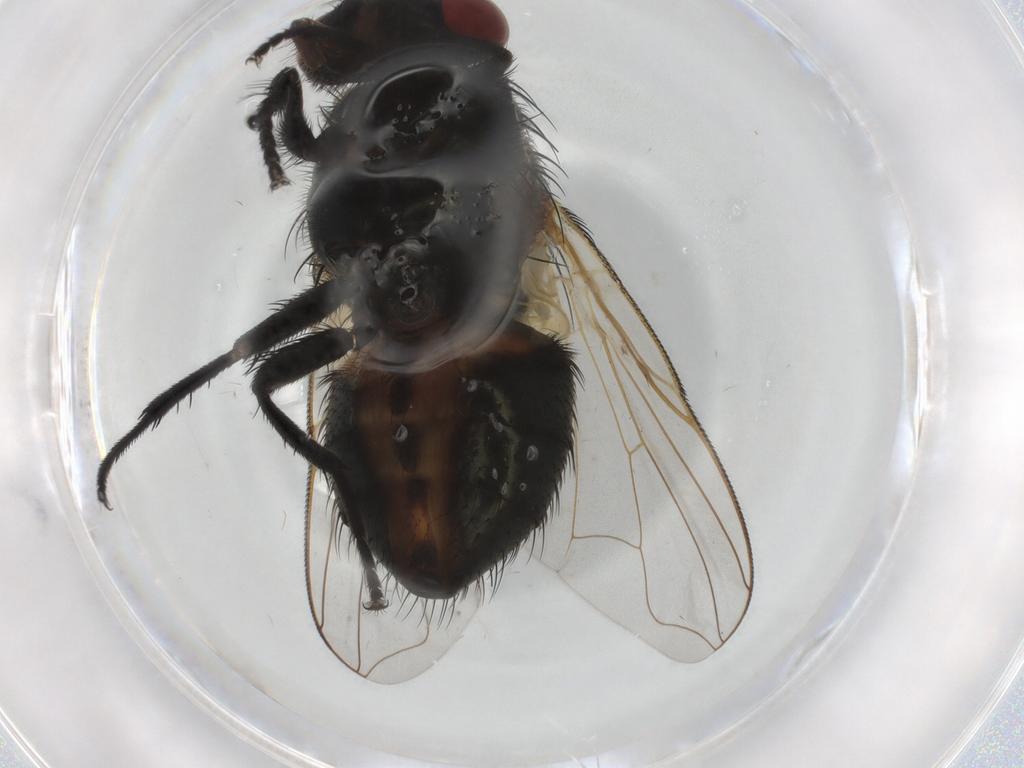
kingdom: Animalia
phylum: Arthropoda
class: Insecta
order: Diptera
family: Muscidae
